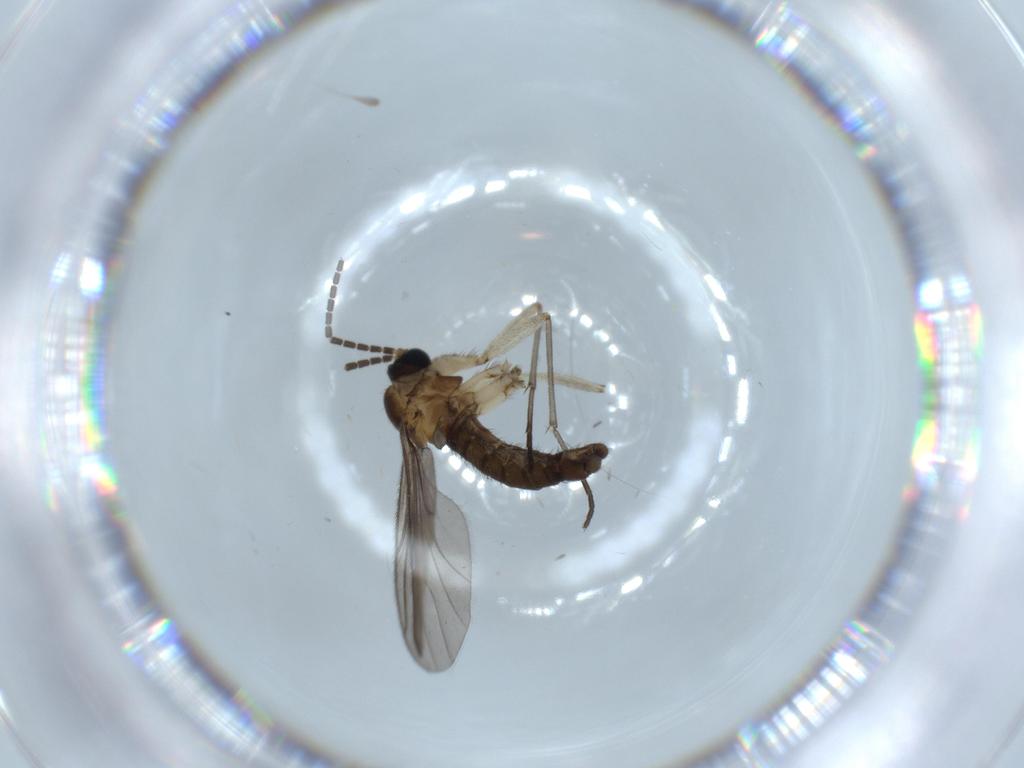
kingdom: Animalia
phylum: Arthropoda
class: Insecta
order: Diptera
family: Sciaridae
